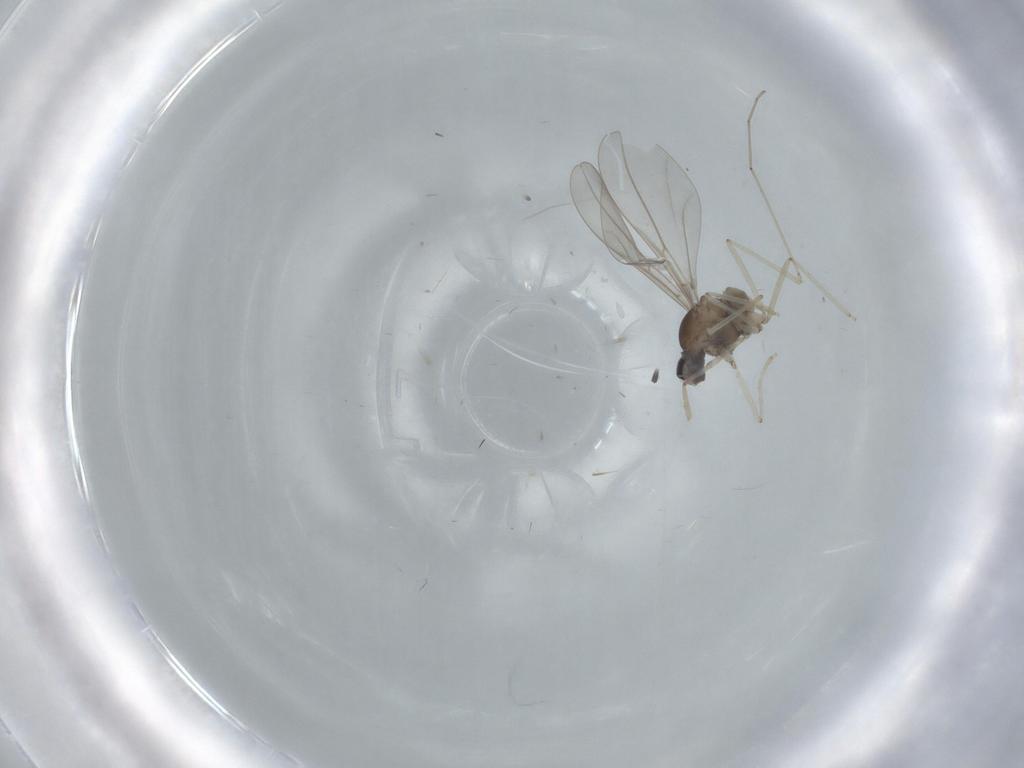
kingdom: Animalia
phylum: Arthropoda
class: Insecta
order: Diptera
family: Cecidomyiidae
